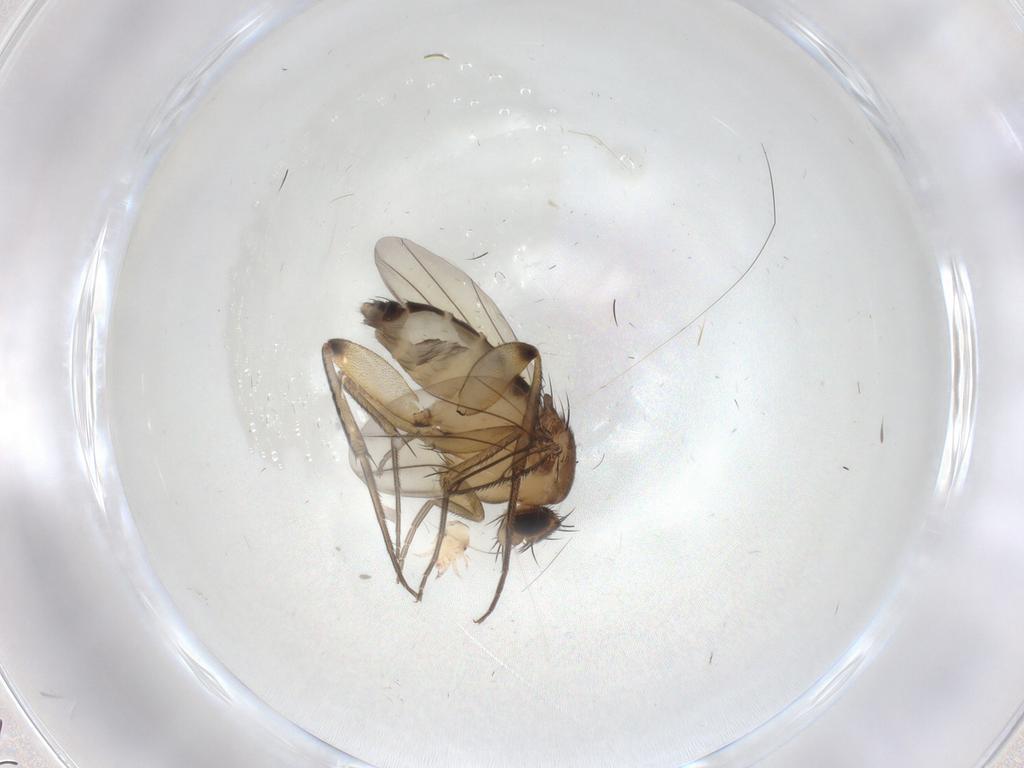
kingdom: Animalia
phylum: Arthropoda
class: Insecta
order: Diptera
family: Phoridae
